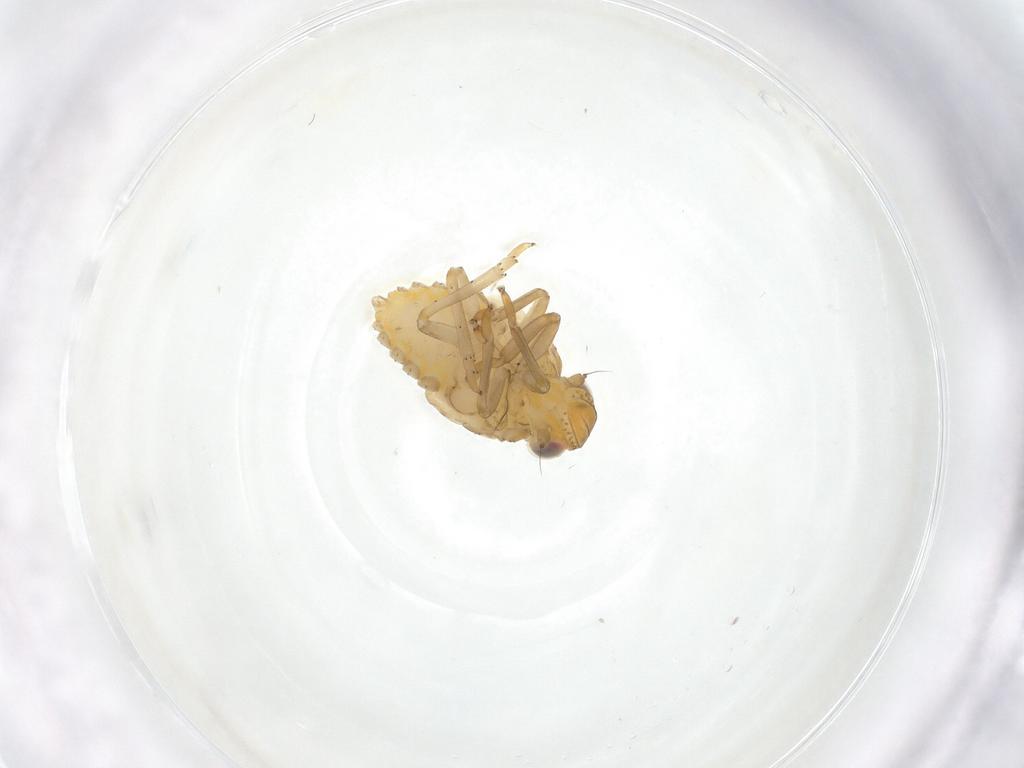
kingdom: Animalia
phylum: Arthropoda
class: Insecta
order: Hemiptera
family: Issidae
